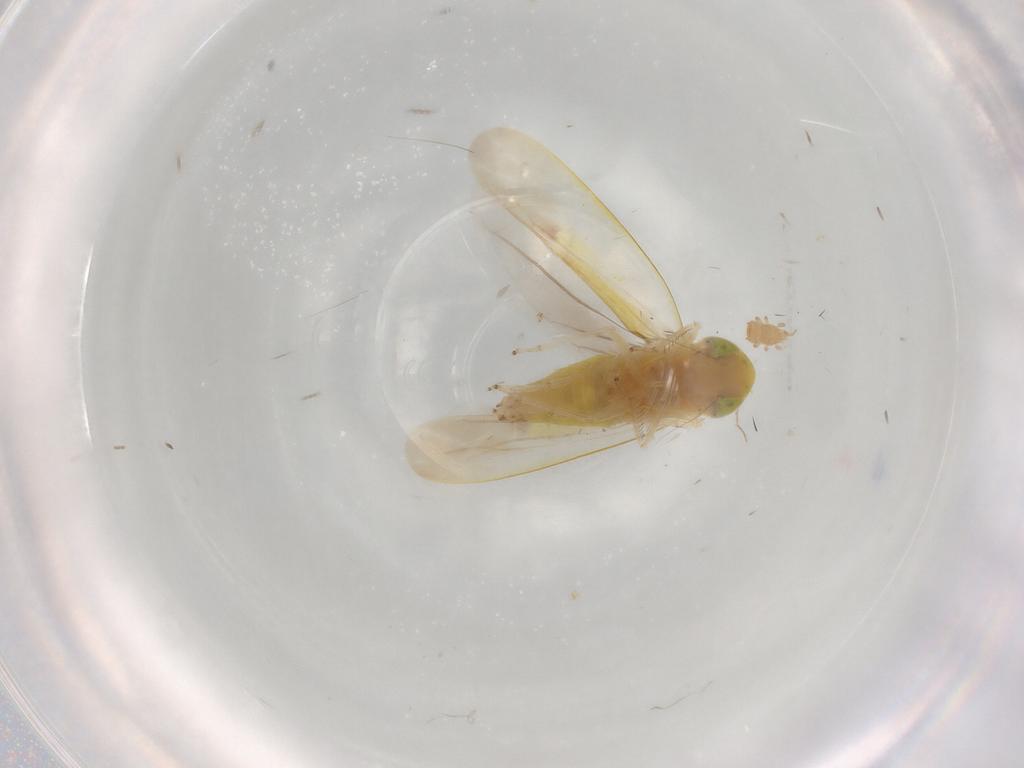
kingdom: Animalia
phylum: Arthropoda
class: Insecta
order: Hemiptera
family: Cicadellidae
